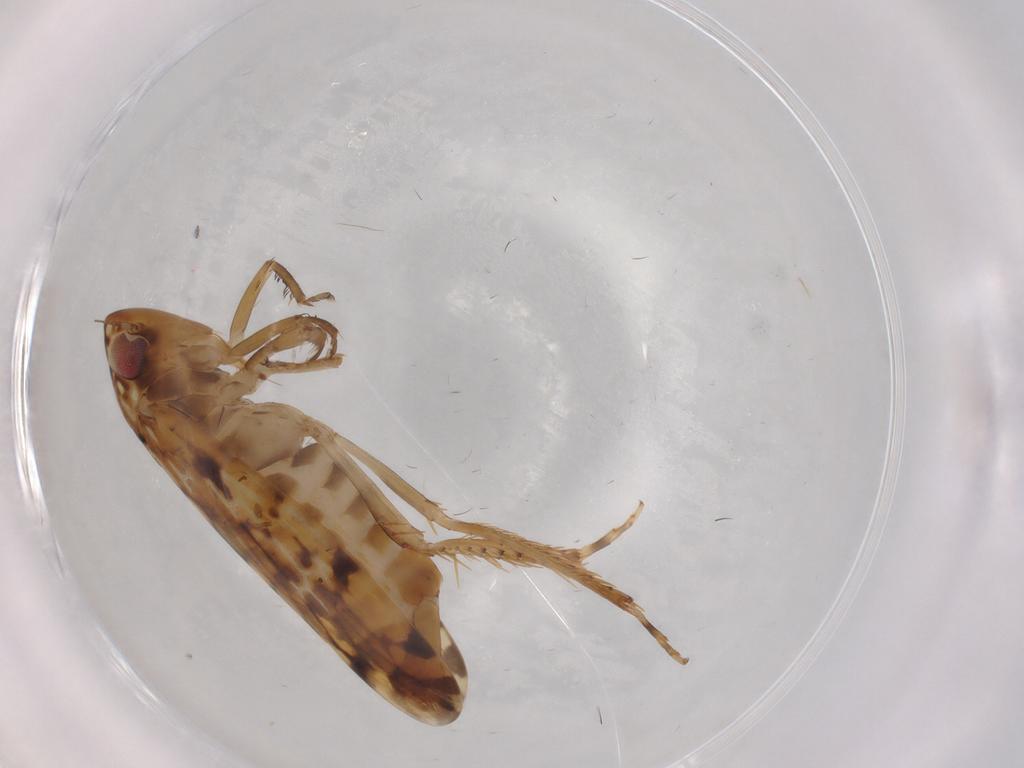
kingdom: Animalia
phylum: Arthropoda
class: Insecta
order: Hemiptera
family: Cicadellidae
